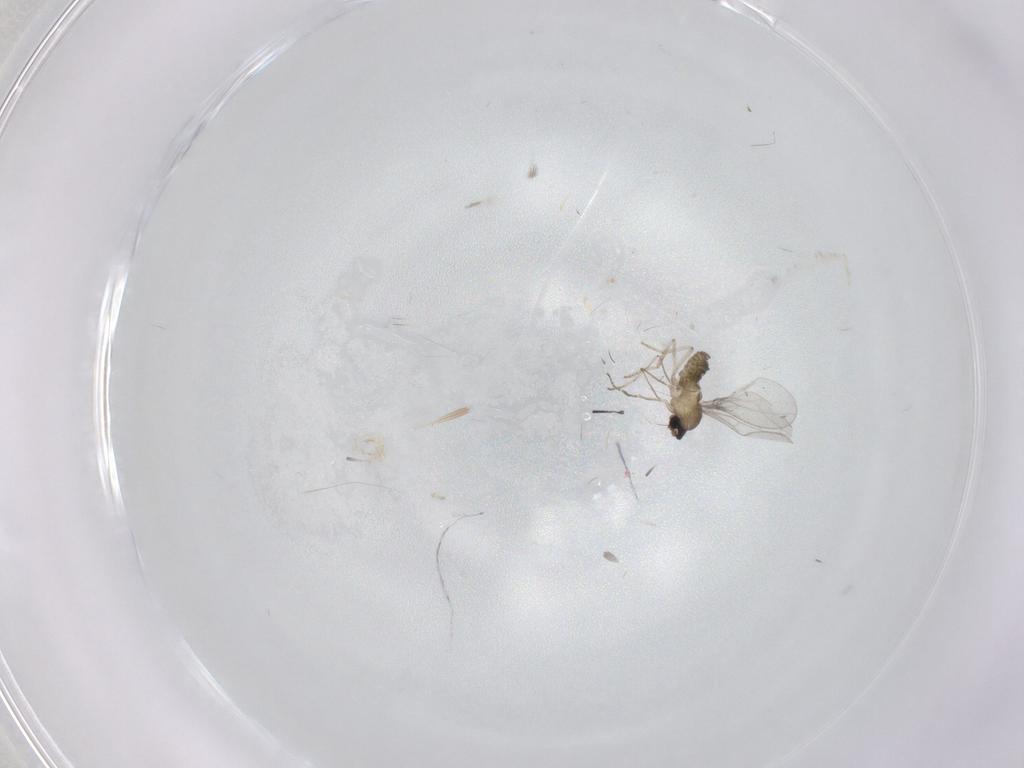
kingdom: Animalia
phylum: Arthropoda
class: Insecta
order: Diptera
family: Cecidomyiidae
